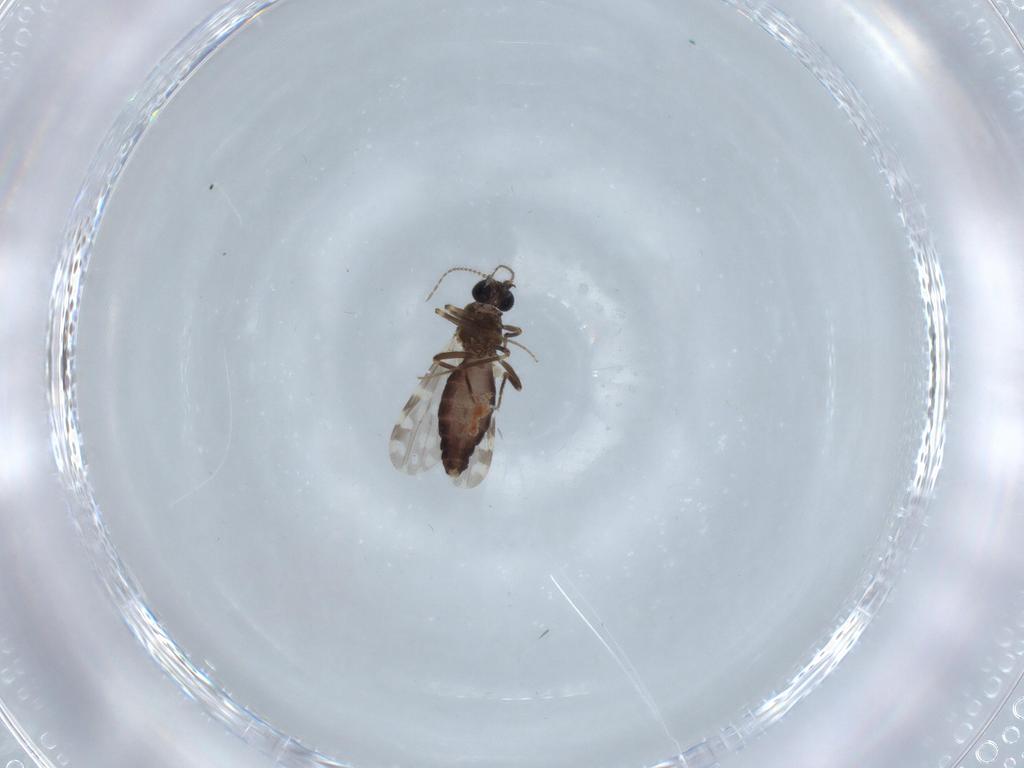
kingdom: Animalia
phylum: Arthropoda
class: Insecta
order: Diptera
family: Ceratopogonidae
